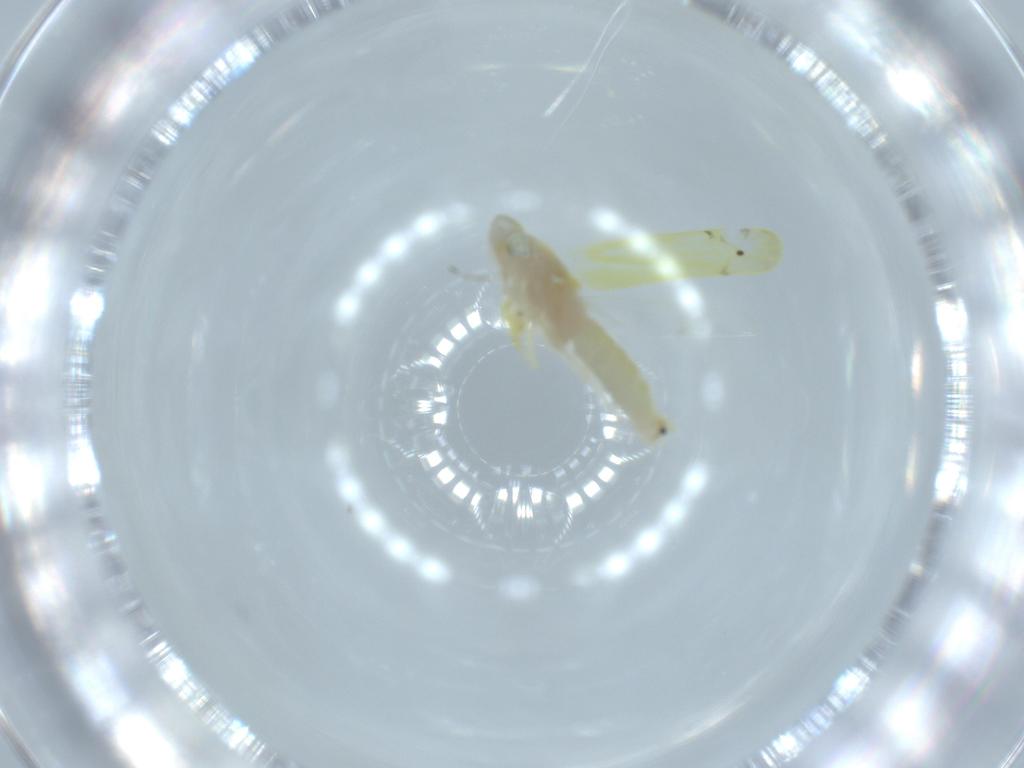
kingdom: Animalia
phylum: Arthropoda
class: Insecta
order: Hemiptera
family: Cicadellidae
